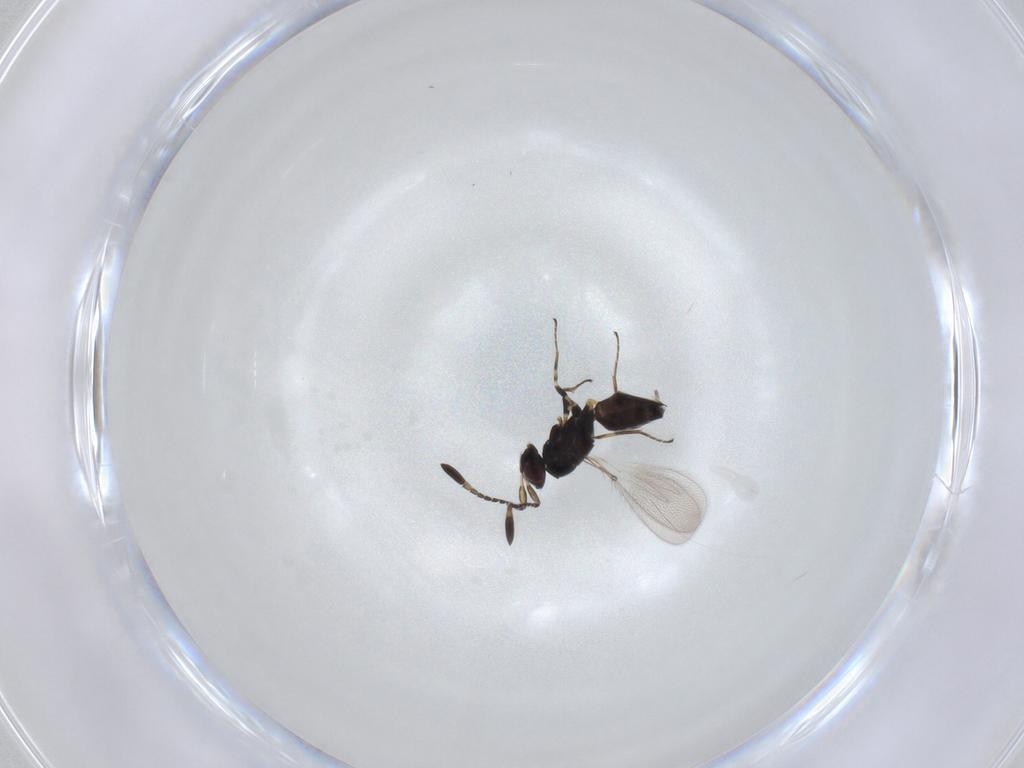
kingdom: Animalia
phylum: Arthropoda
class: Insecta
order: Hymenoptera
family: Mymaridae
